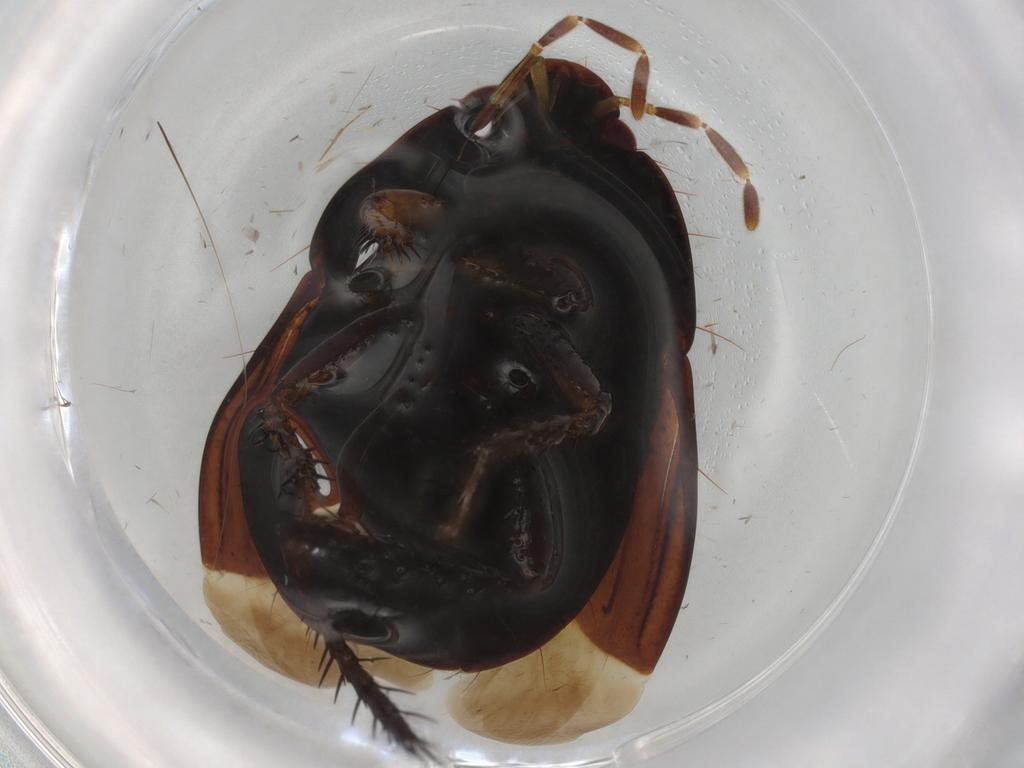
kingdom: Animalia
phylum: Arthropoda
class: Insecta
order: Hemiptera
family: Cydnidae
